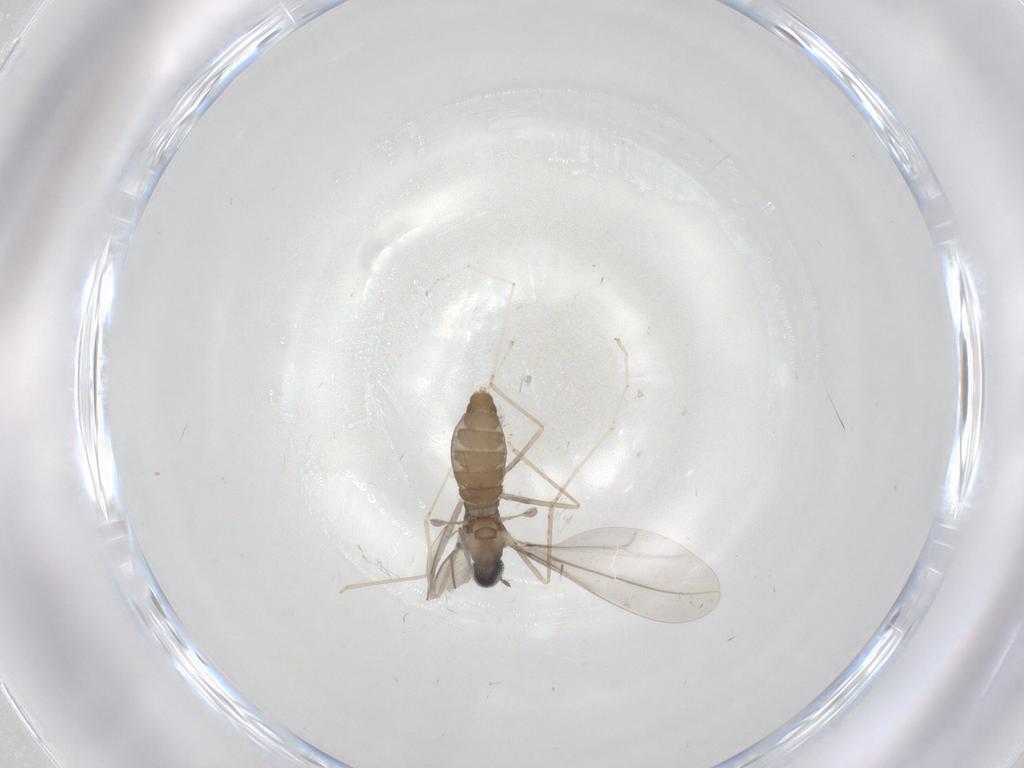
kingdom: Animalia
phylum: Arthropoda
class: Insecta
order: Diptera
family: Cecidomyiidae
